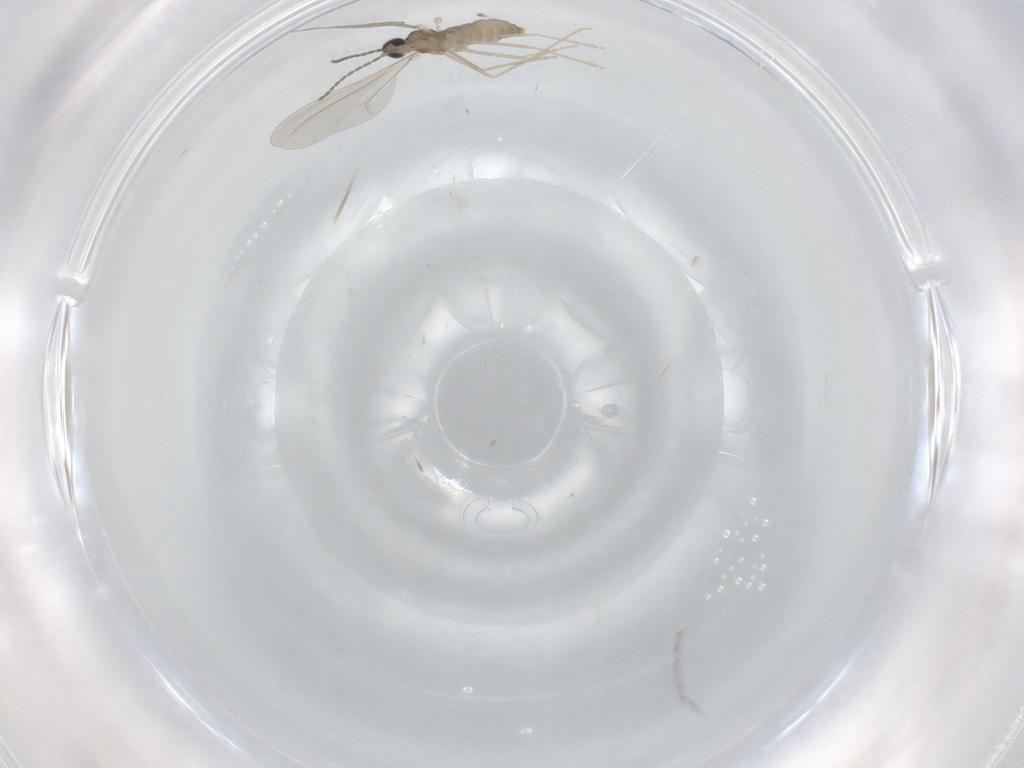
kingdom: Animalia
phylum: Arthropoda
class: Insecta
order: Diptera
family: Cecidomyiidae
